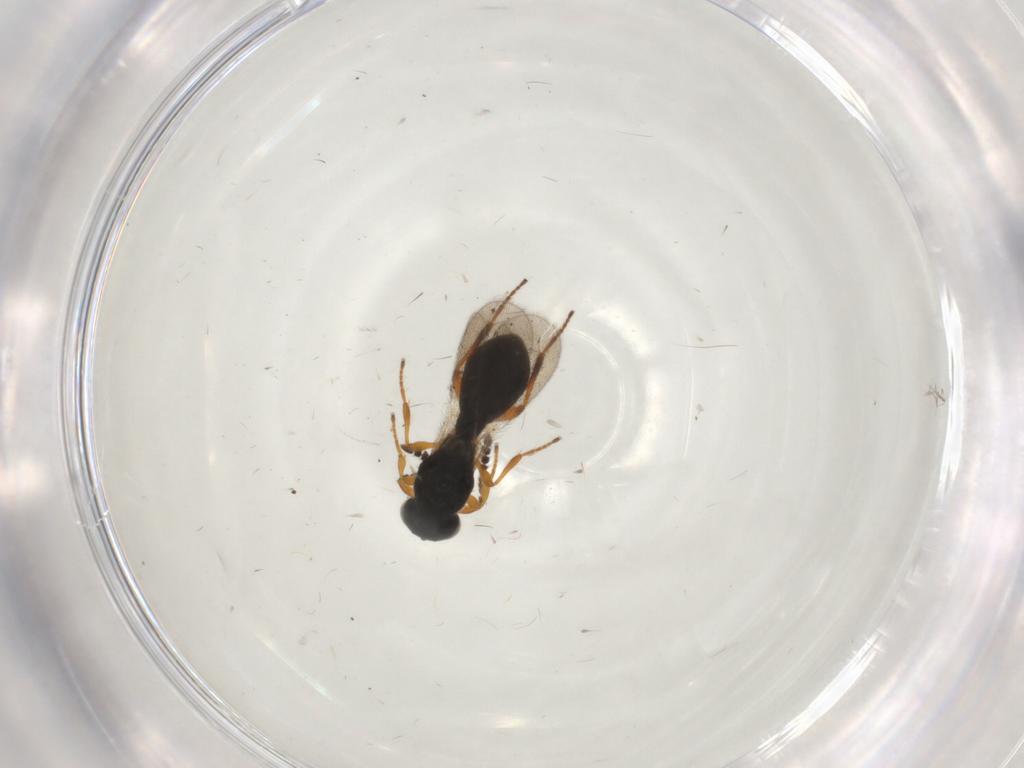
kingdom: Animalia
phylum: Arthropoda
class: Insecta
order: Hymenoptera
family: Platygastridae
